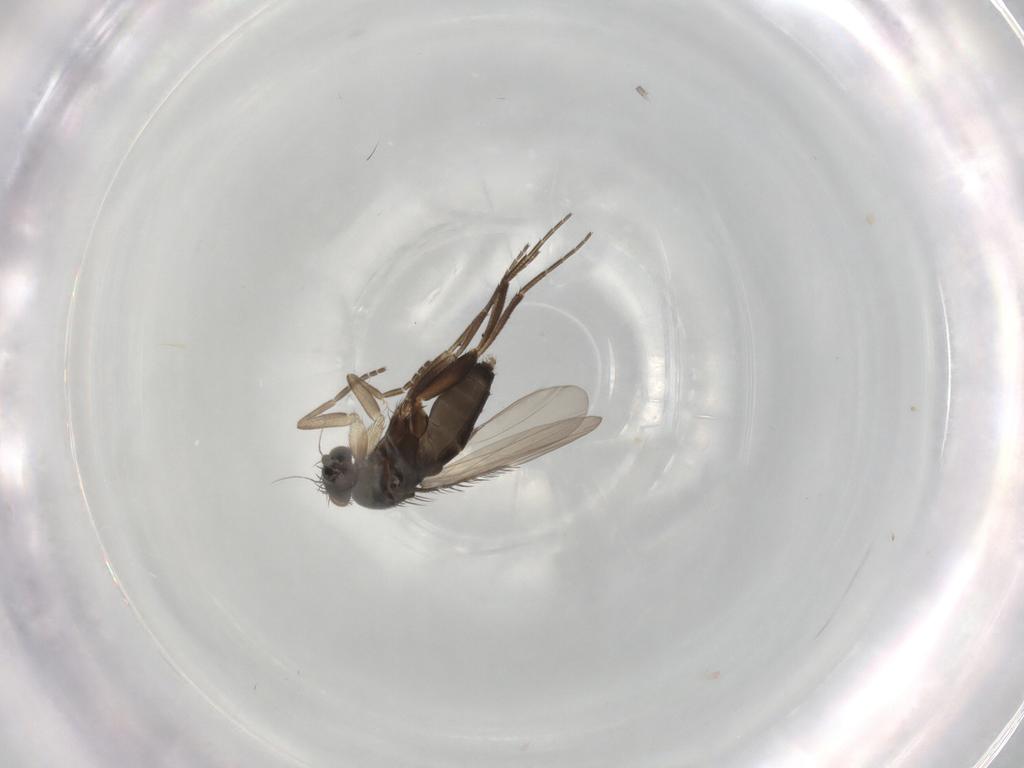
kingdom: Animalia
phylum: Arthropoda
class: Insecta
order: Diptera
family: Phoridae
